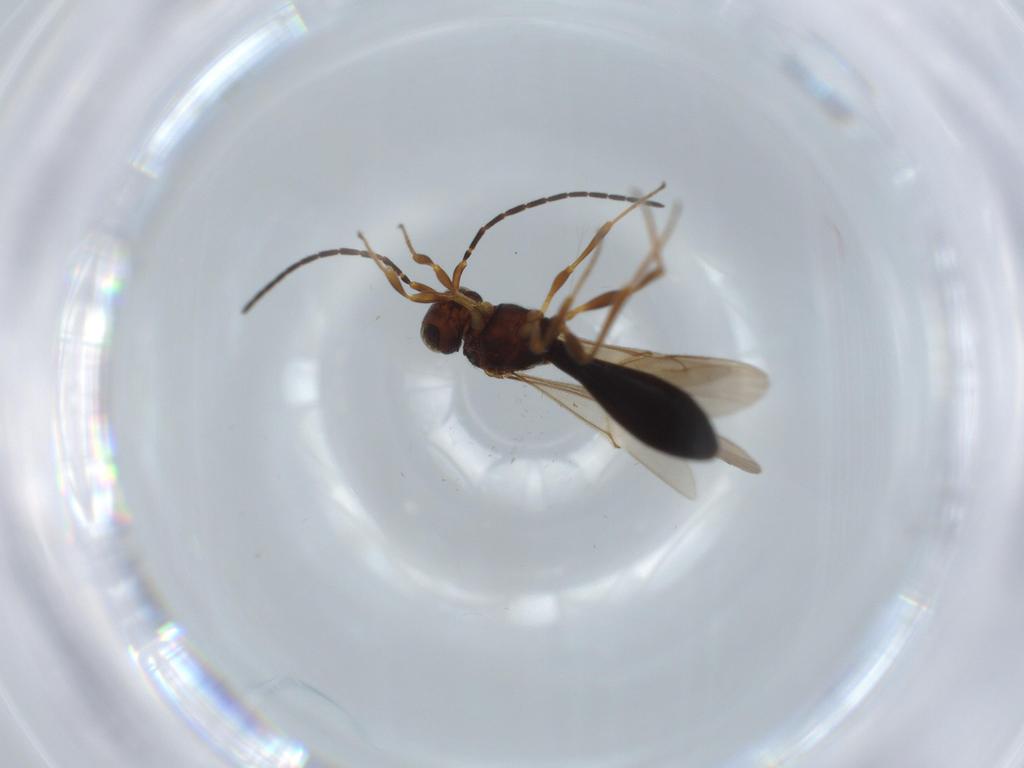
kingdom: Animalia
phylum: Arthropoda
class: Insecta
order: Hymenoptera
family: Scelionidae
